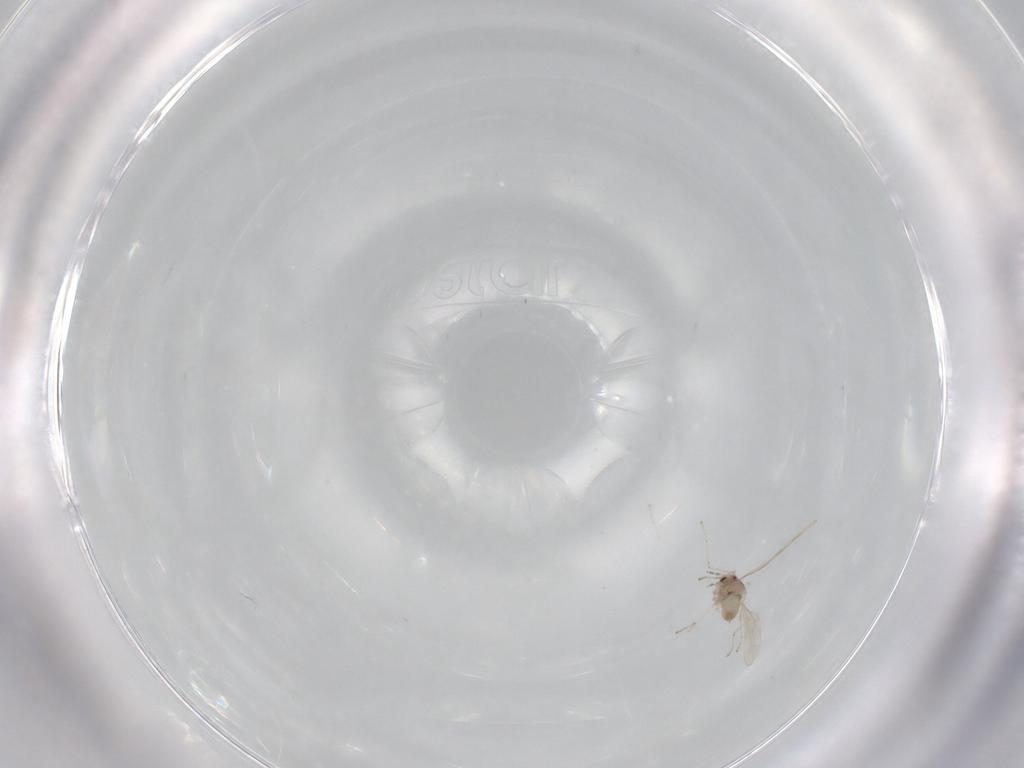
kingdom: Animalia
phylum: Arthropoda
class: Insecta
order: Diptera
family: Cecidomyiidae
